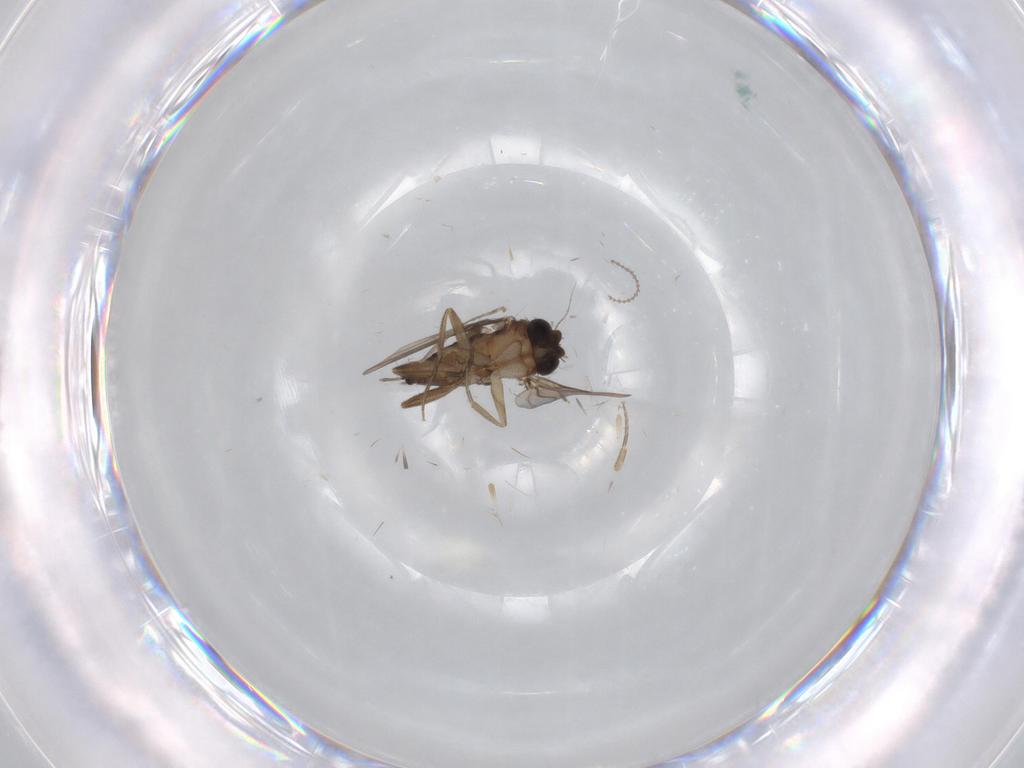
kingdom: Animalia
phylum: Arthropoda
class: Insecta
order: Diptera
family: Phoridae
